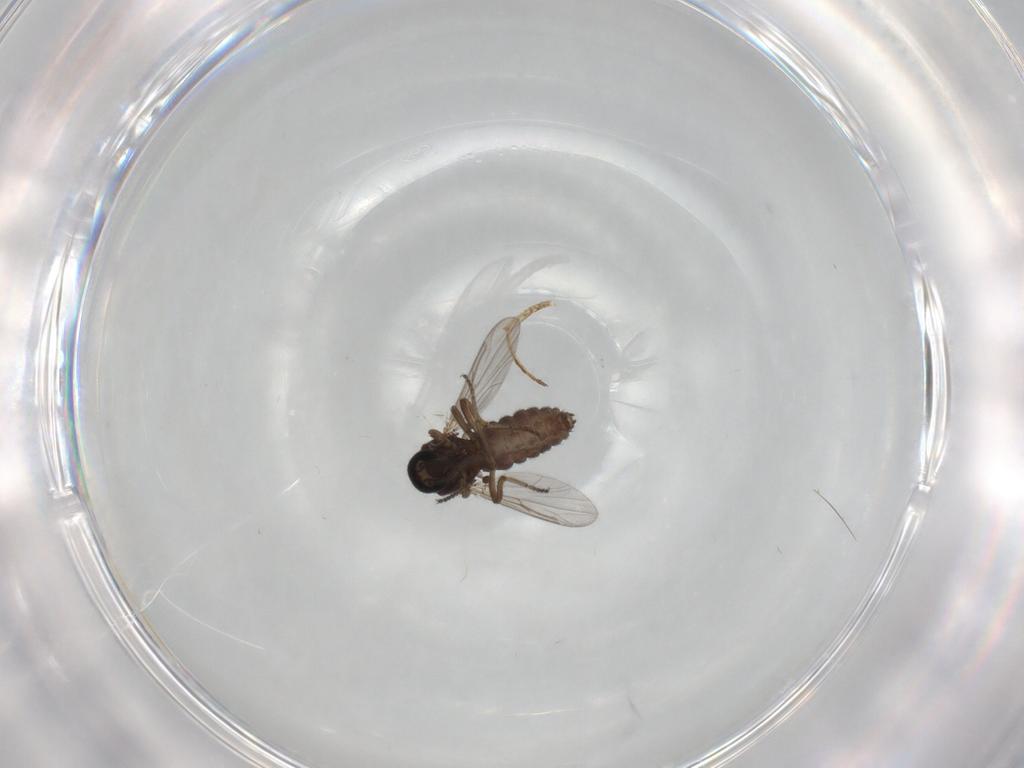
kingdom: Animalia
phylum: Arthropoda
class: Insecta
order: Diptera
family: Ceratopogonidae
